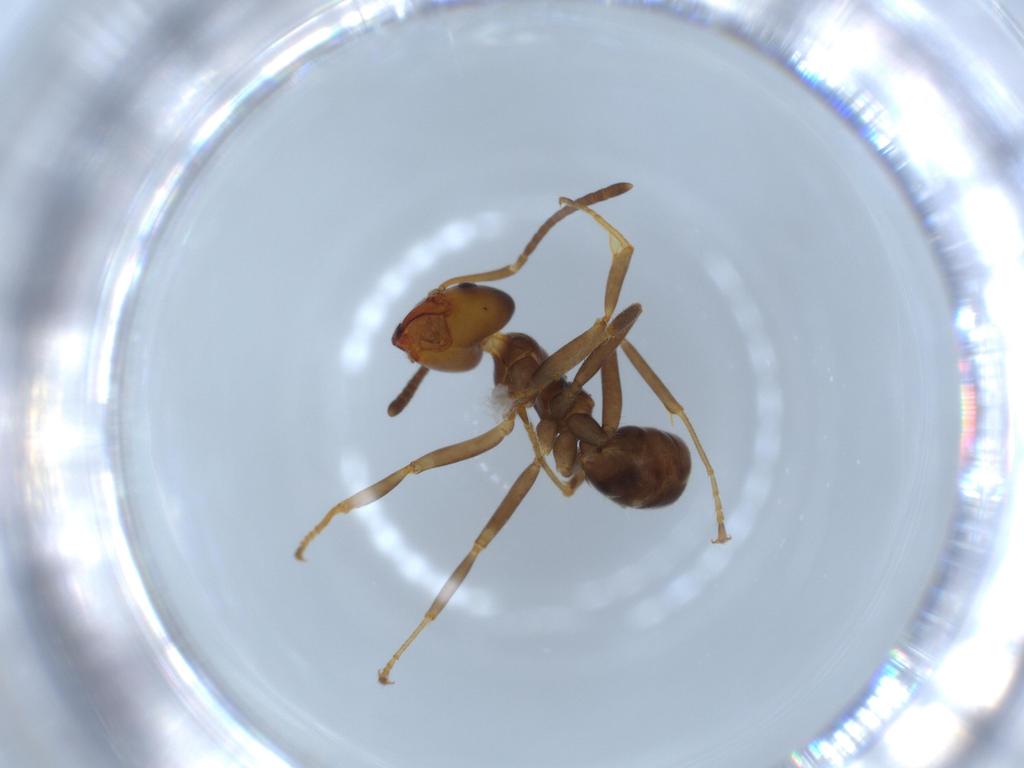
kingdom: Animalia
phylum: Arthropoda
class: Insecta
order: Hymenoptera
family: Formicidae
